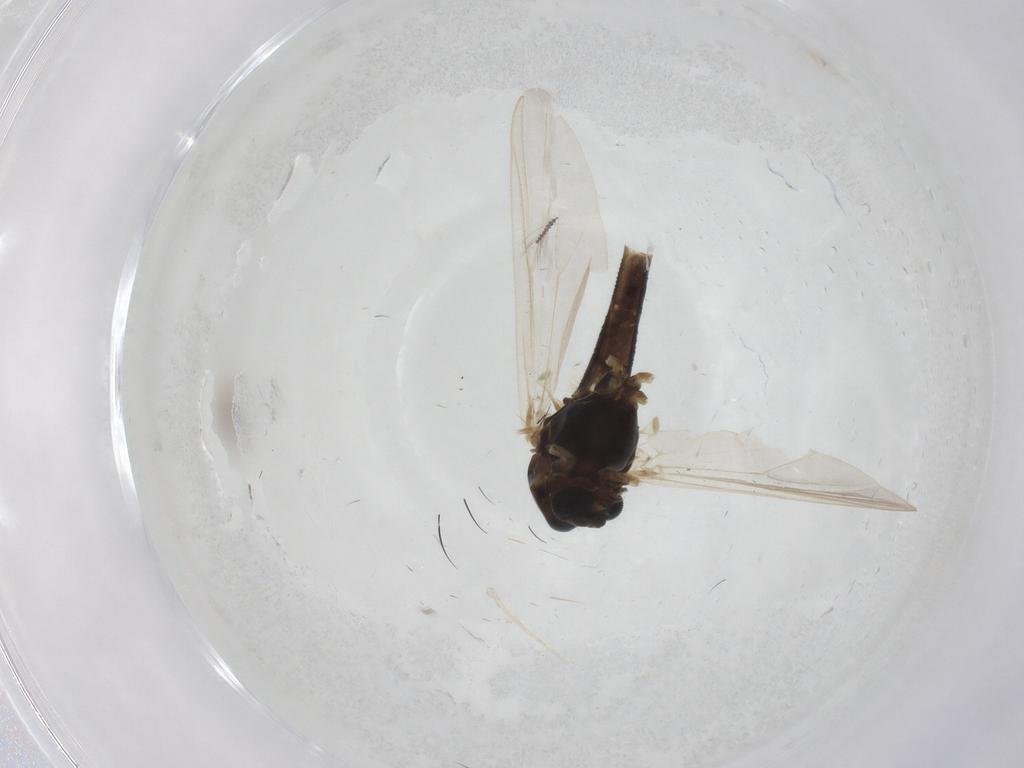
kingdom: Animalia
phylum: Arthropoda
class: Insecta
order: Diptera
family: Chironomidae
